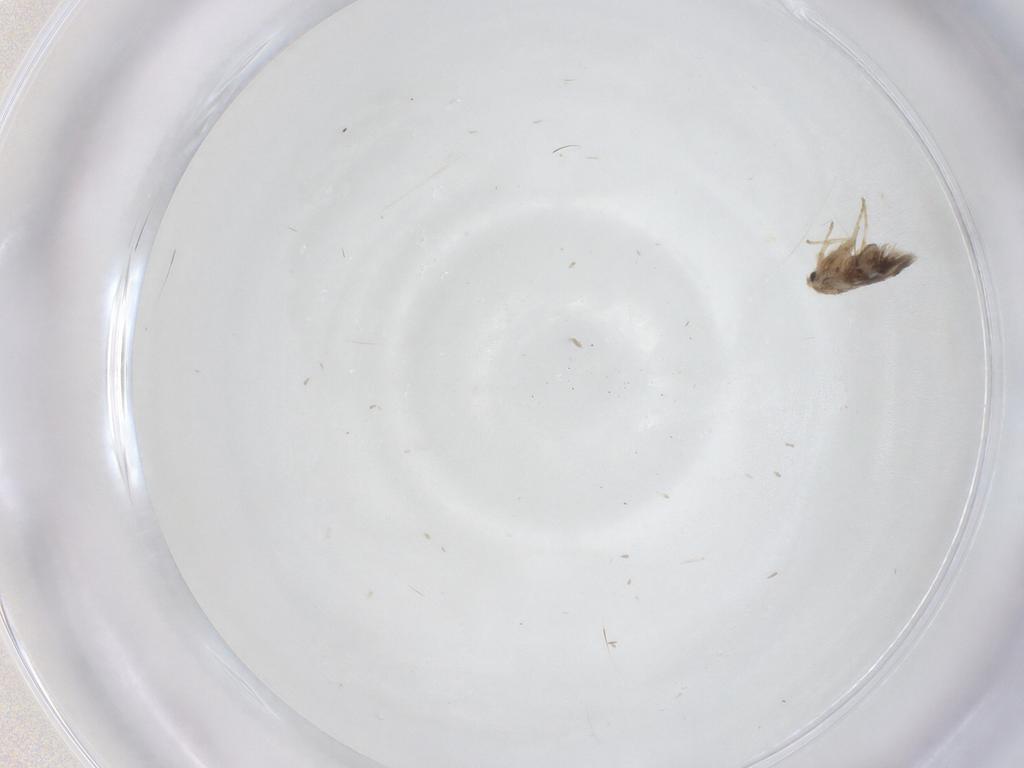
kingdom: Animalia
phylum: Arthropoda
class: Insecta
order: Lepidoptera
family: Nepticulidae
